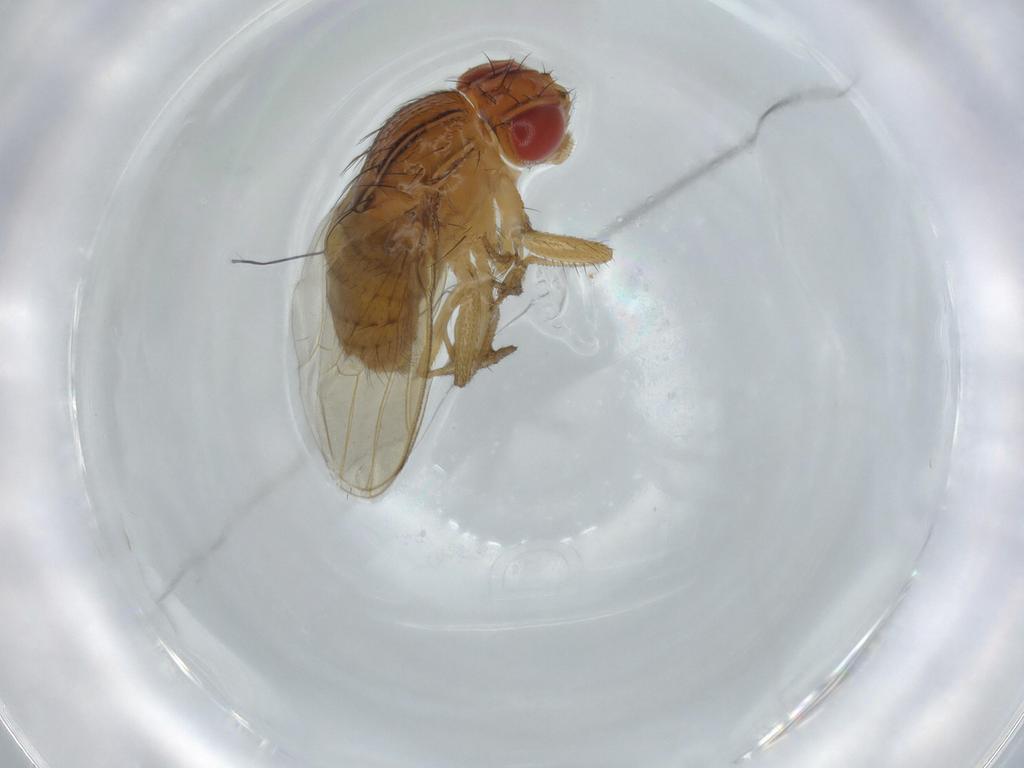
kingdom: Animalia
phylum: Arthropoda
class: Insecta
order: Diptera
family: Drosophilidae
